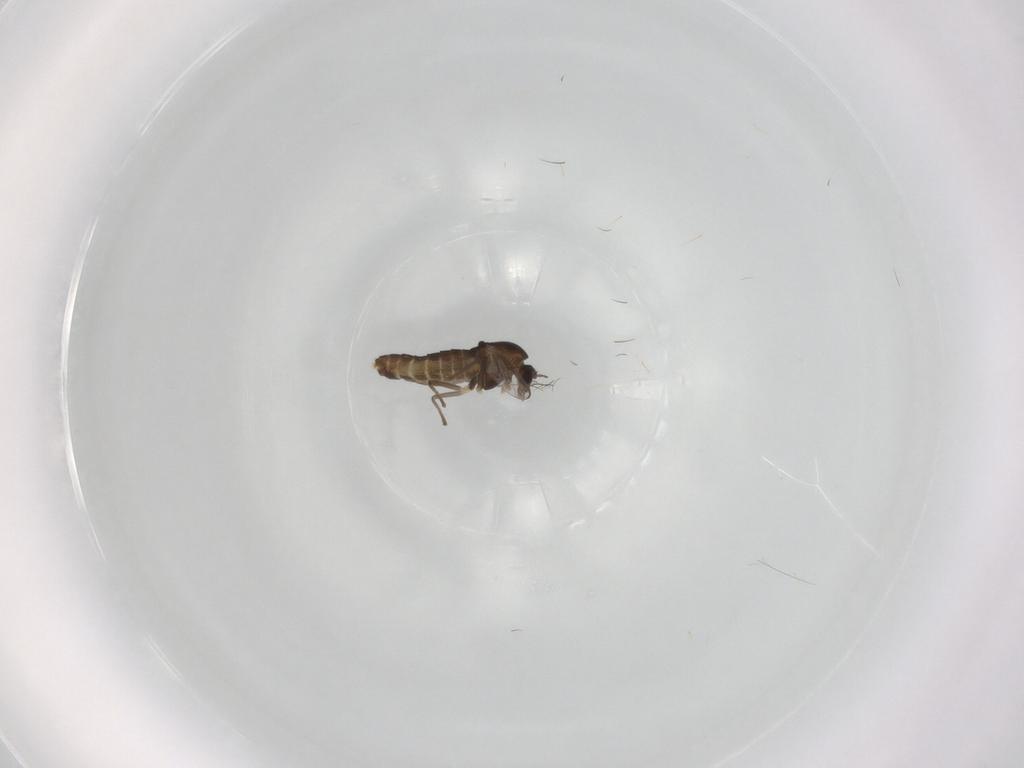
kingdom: Animalia
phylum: Arthropoda
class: Insecta
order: Diptera
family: Chironomidae
